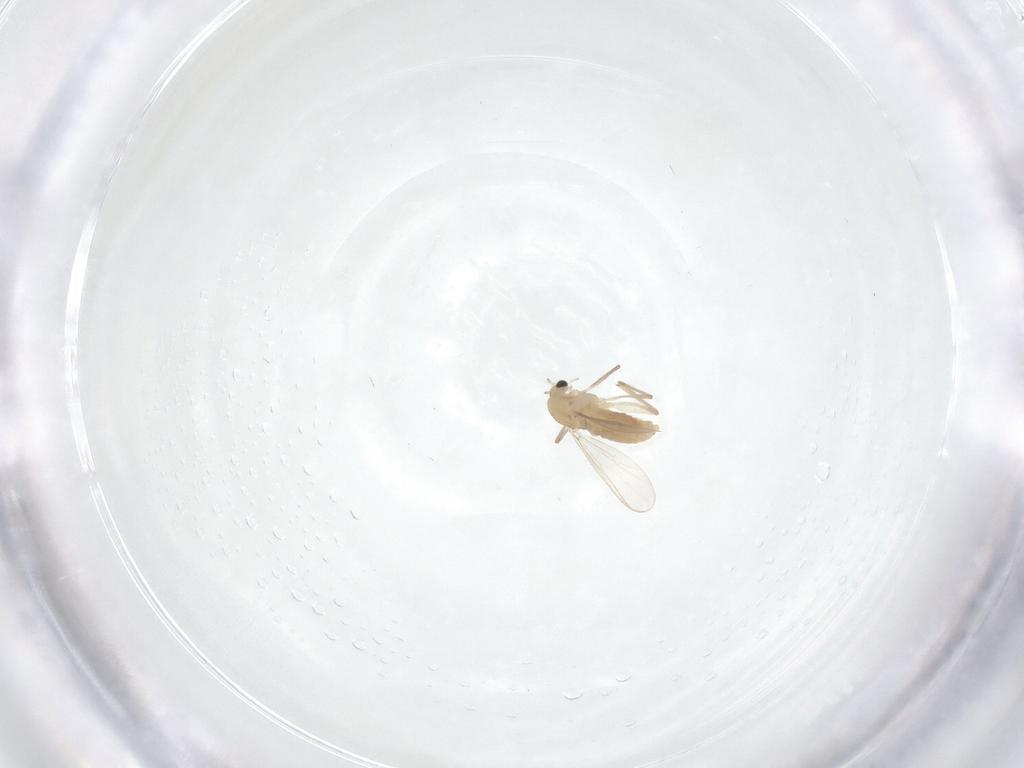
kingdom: Animalia
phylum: Arthropoda
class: Insecta
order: Diptera
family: Chironomidae
